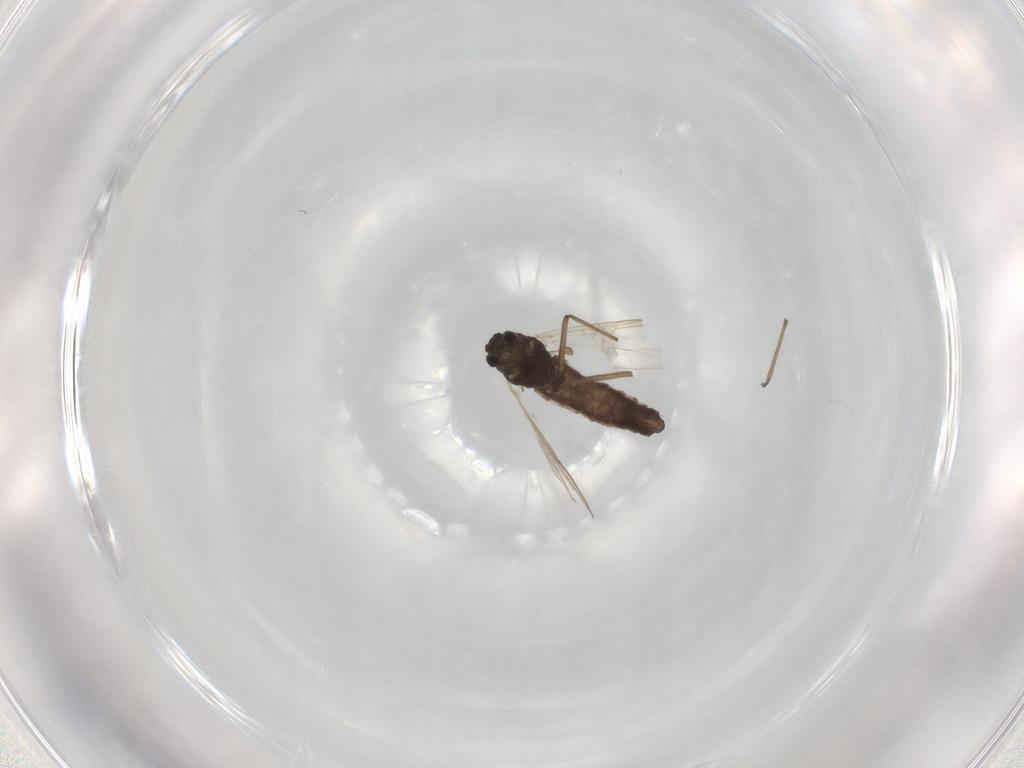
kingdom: Animalia
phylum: Arthropoda
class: Insecta
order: Diptera
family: Chironomidae
